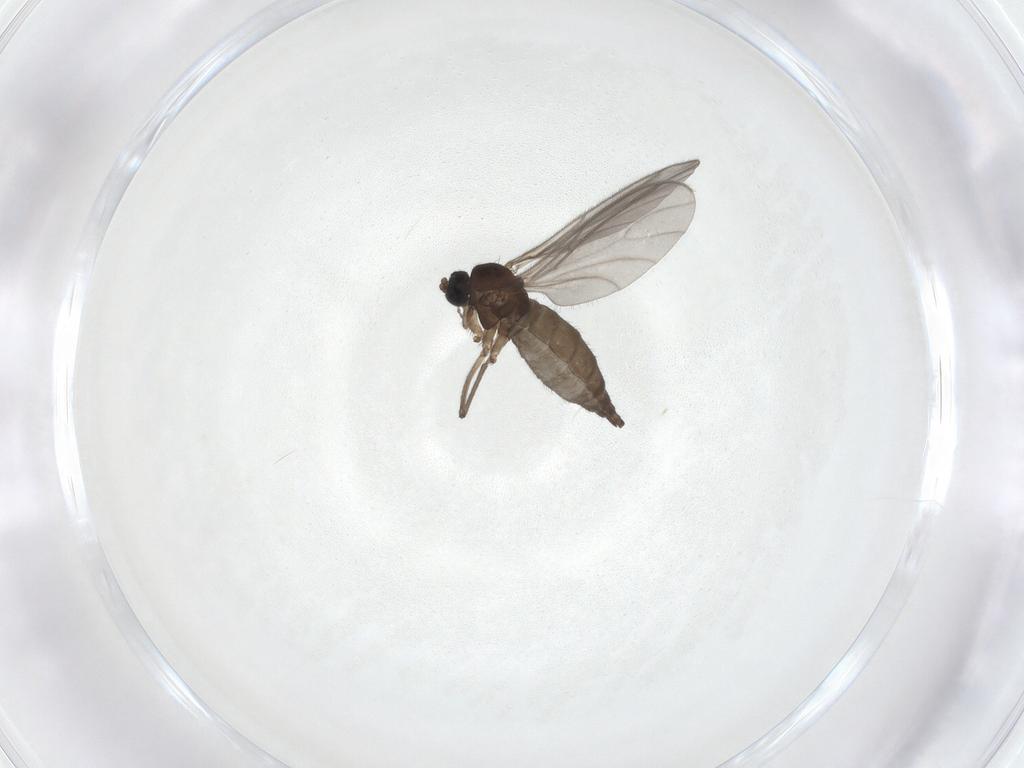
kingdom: Animalia
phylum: Arthropoda
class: Insecta
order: Diptera
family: Sciaridae
